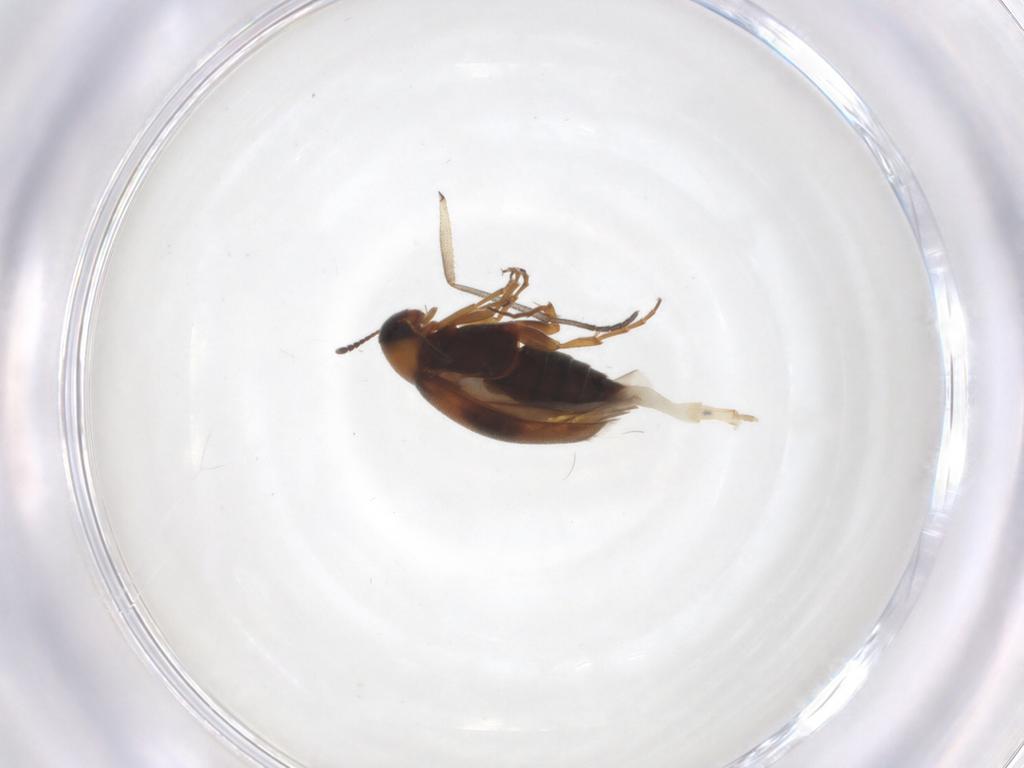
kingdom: Animalia
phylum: Arthropoda
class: Insecta
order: Coleoptera
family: Scraptiidae
